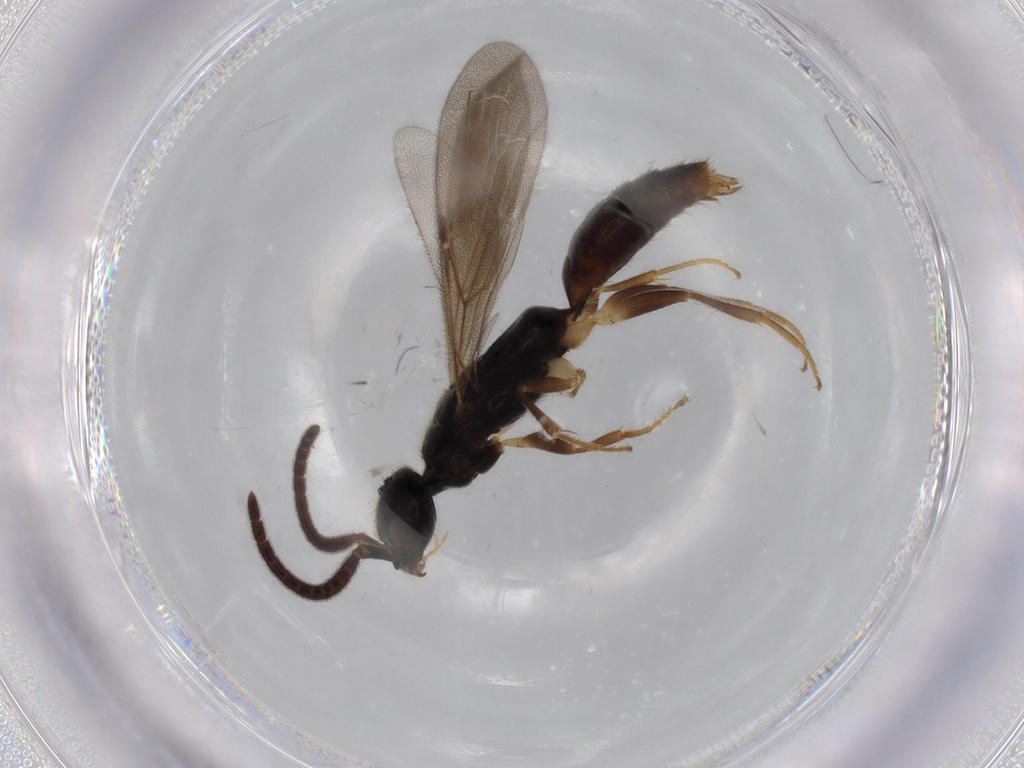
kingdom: Animalia
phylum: Arthropoda
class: Insecta
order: Hymenoptera
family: Bethylidae
